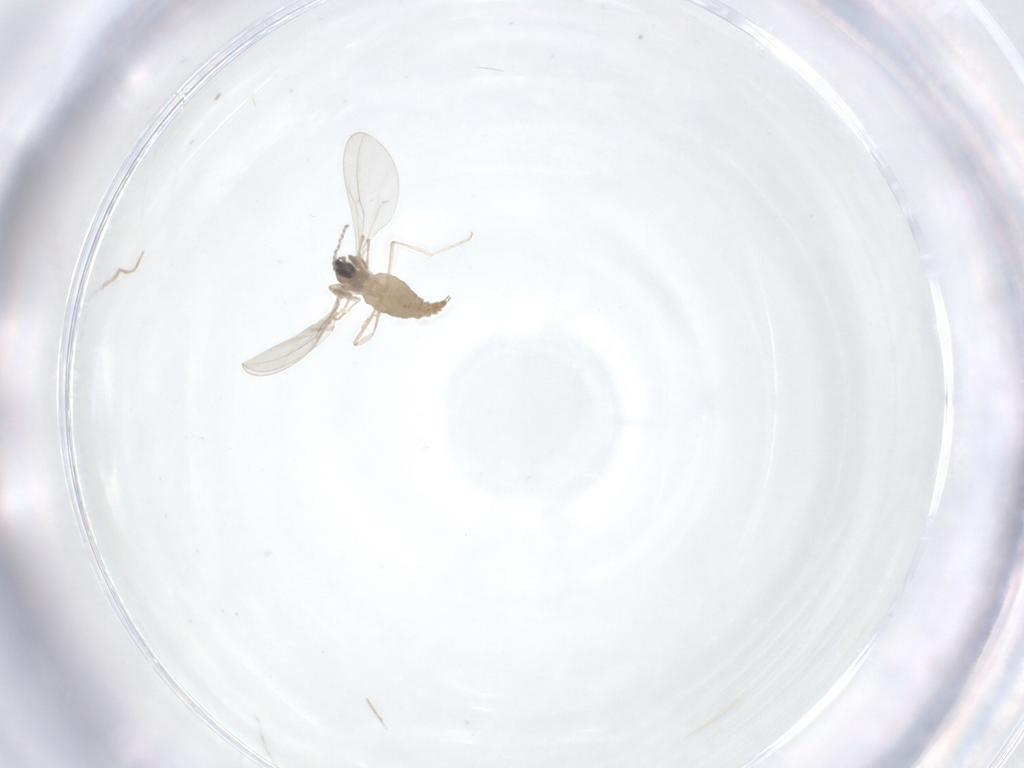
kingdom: Animalia
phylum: Arthropoda
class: Insecta
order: Diptera
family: Cecidomyiidae
